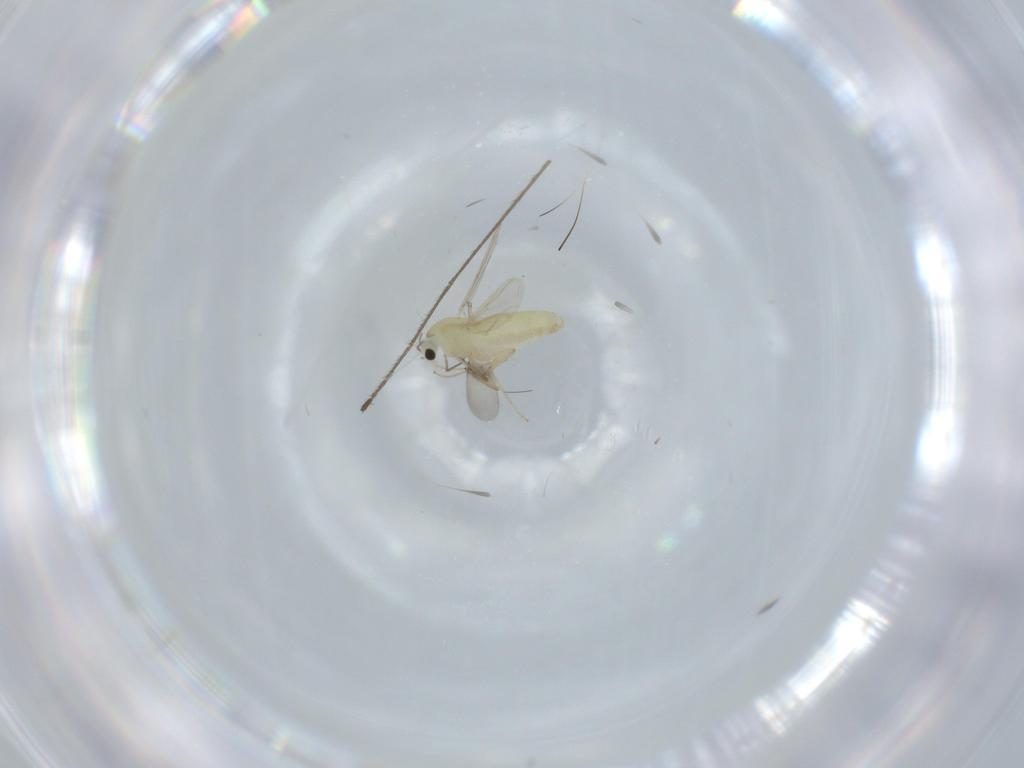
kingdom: Animalia
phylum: Arthropoda
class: Insecta
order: Diptera
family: Chironomidae
